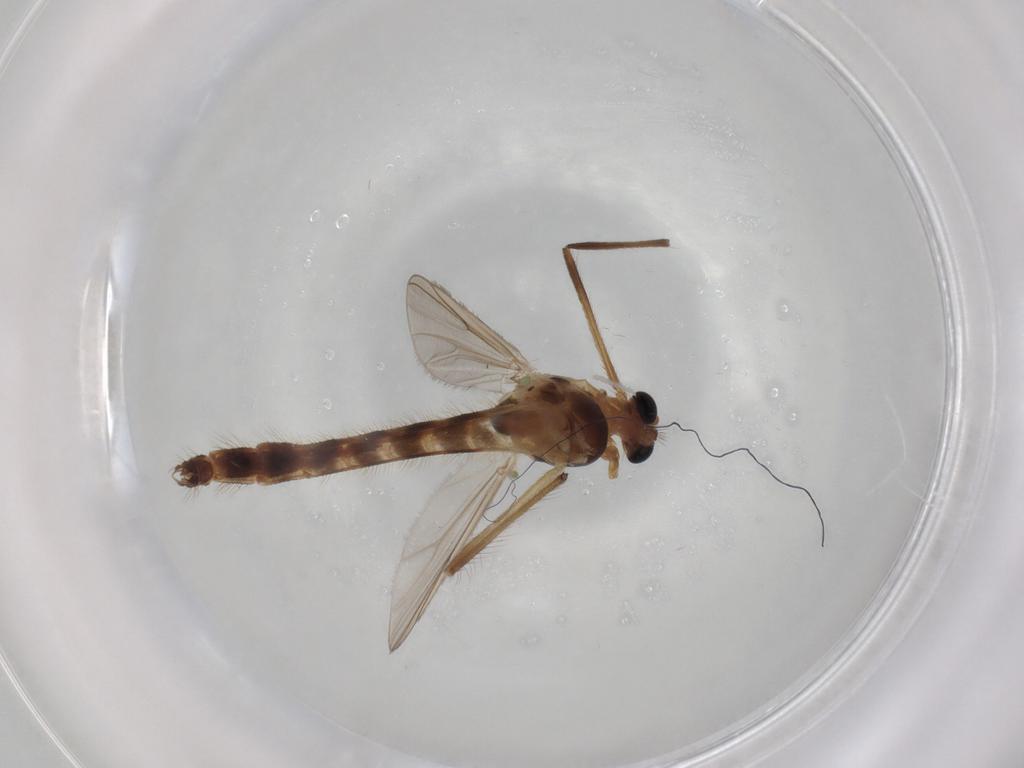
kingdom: Animalia
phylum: Arthropoda
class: Insecta
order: Diptera
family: Chironomidae
